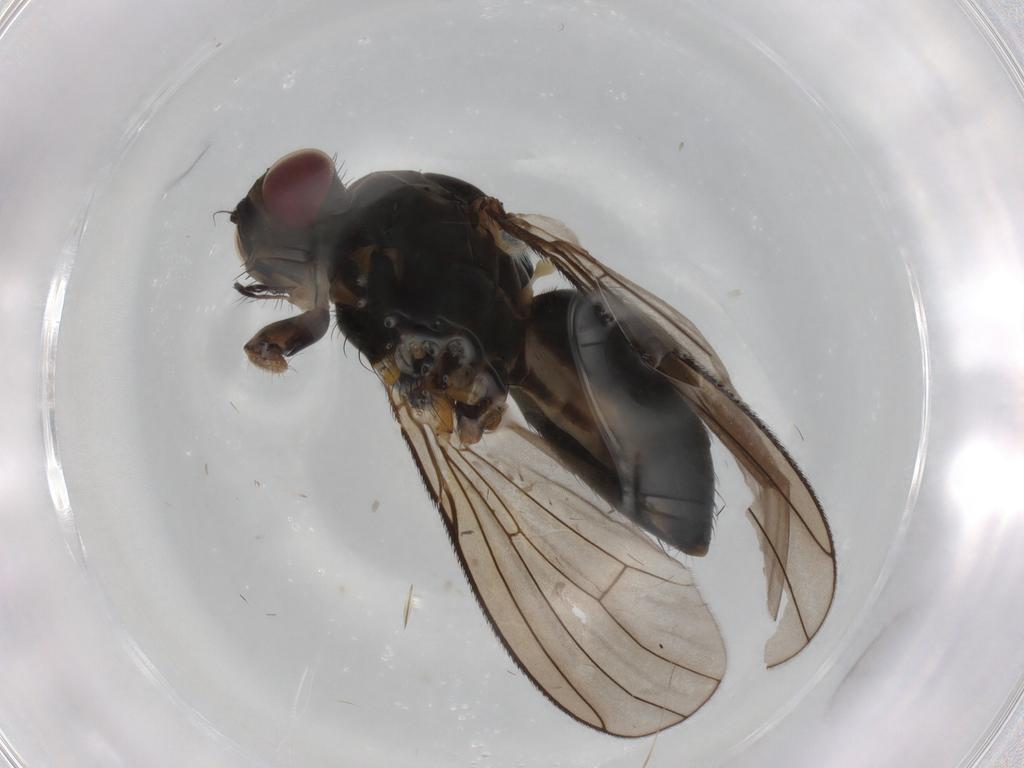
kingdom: Animalia
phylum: Arthropoda
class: Insecta
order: Diptera
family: Muscidae
